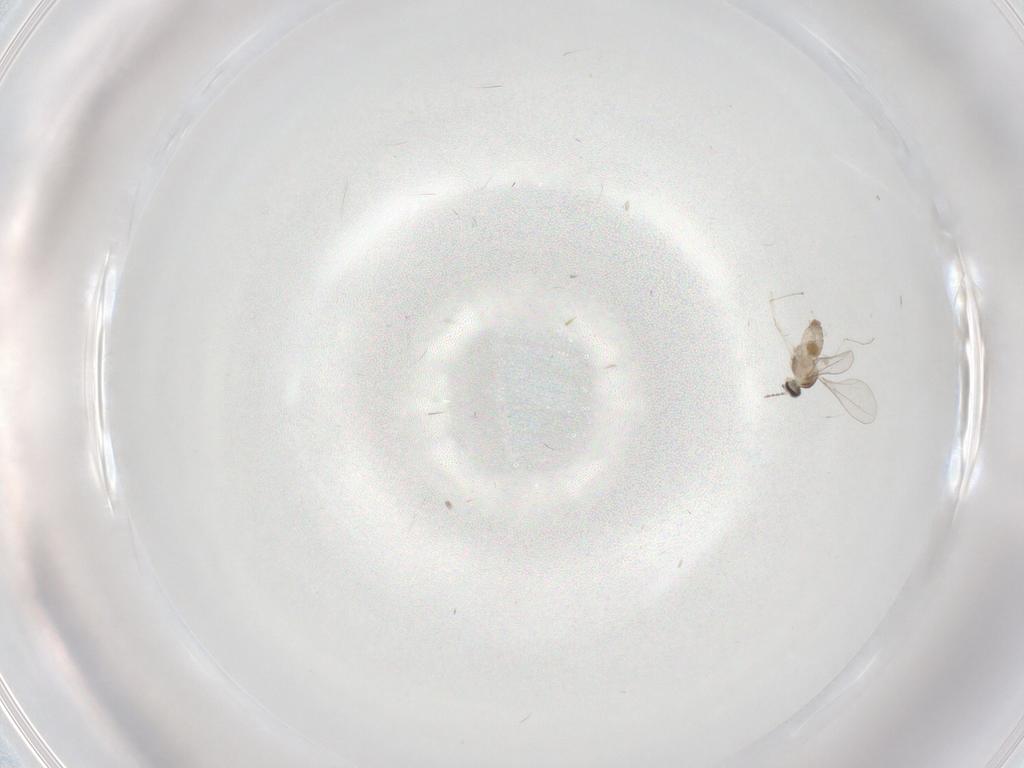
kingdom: Animalia
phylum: Arthropoda
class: Insecta
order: Diptera
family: Cecidomyiidae
